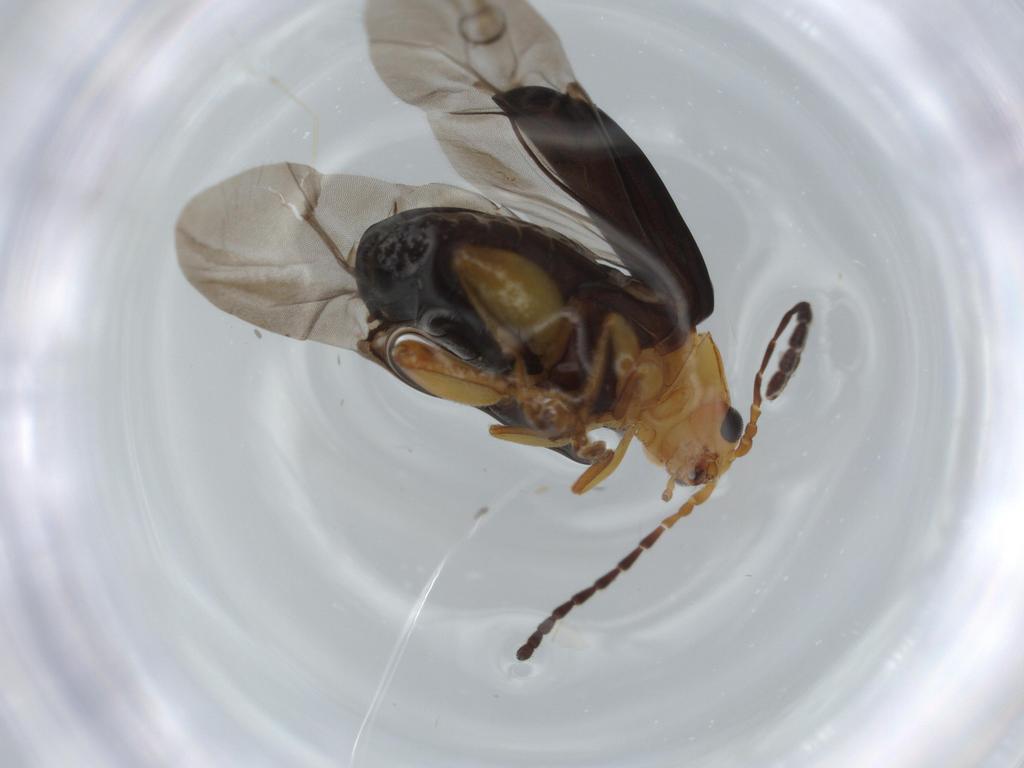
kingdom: Animalia
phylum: Arthropoda
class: Insecta
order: Coleoptera
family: Chrysomelidae
